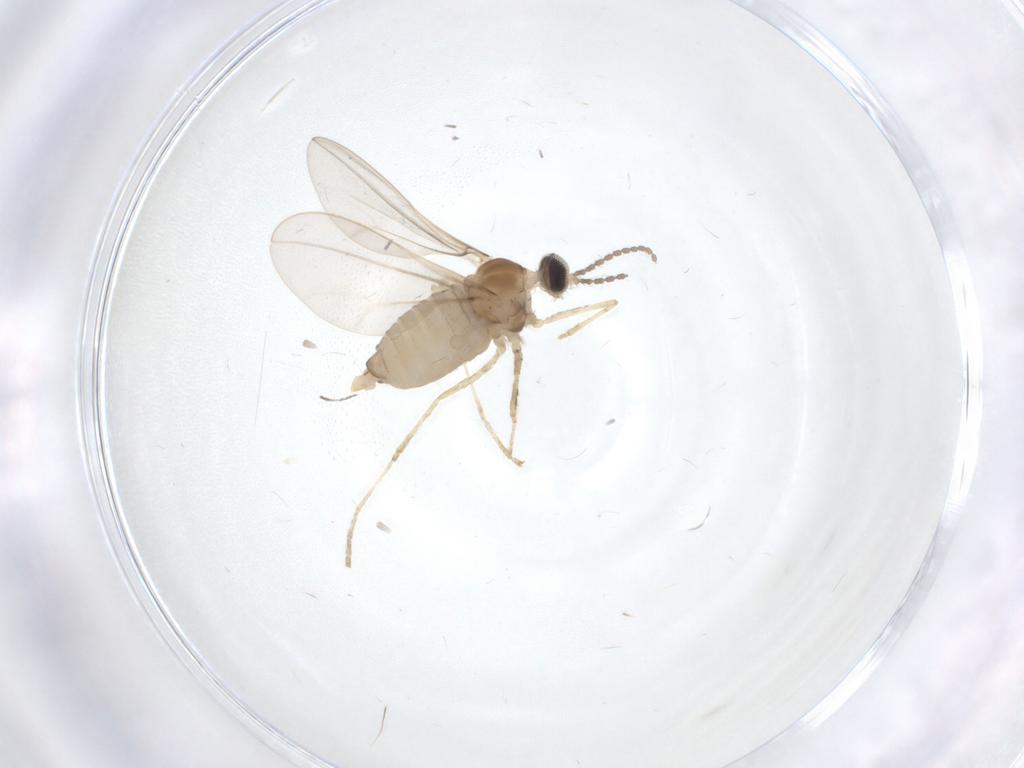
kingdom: Animalia
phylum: Arthropoda
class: Insecta
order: Diptera
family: Cecidomyiidae
